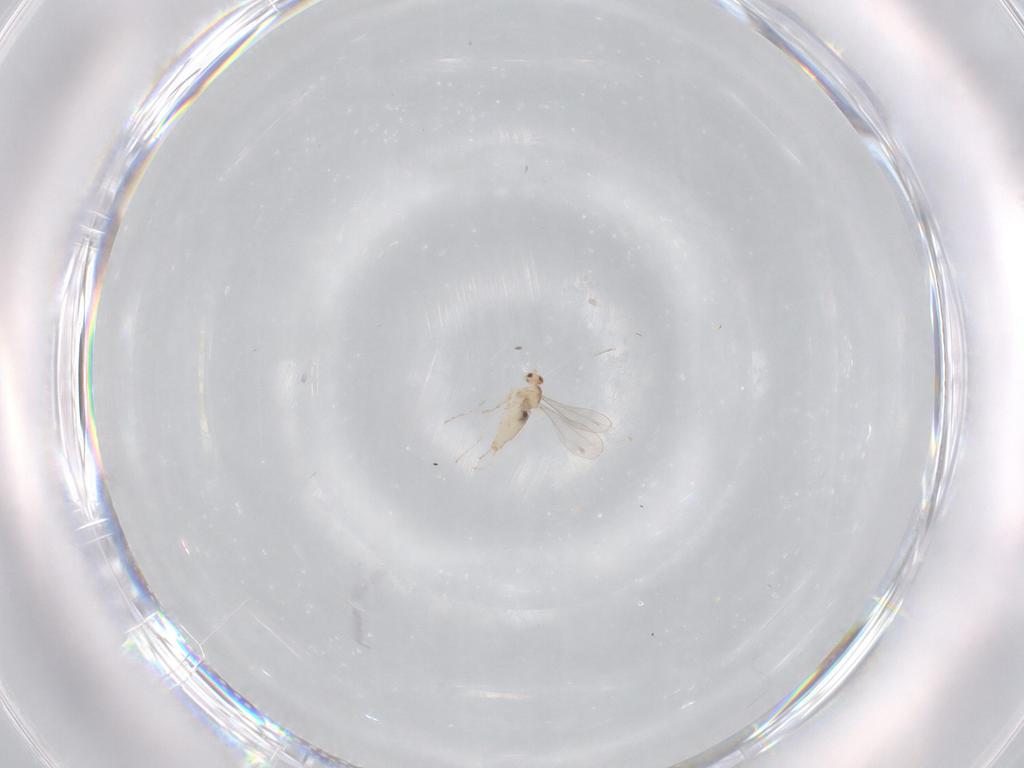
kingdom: Animalia
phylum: Arthropoda
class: Insecta
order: Diptera
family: Cecidomyiidae
